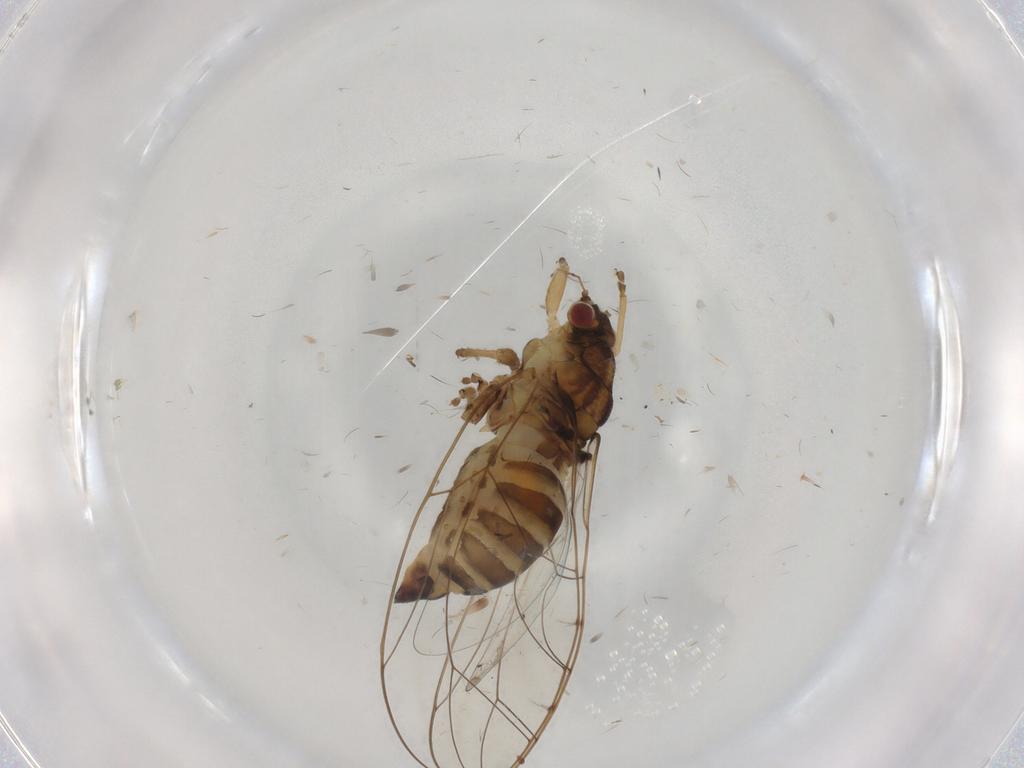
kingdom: Animalia
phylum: Arthropoda
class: Insecta
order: Hemiptera
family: Cicadellidae
